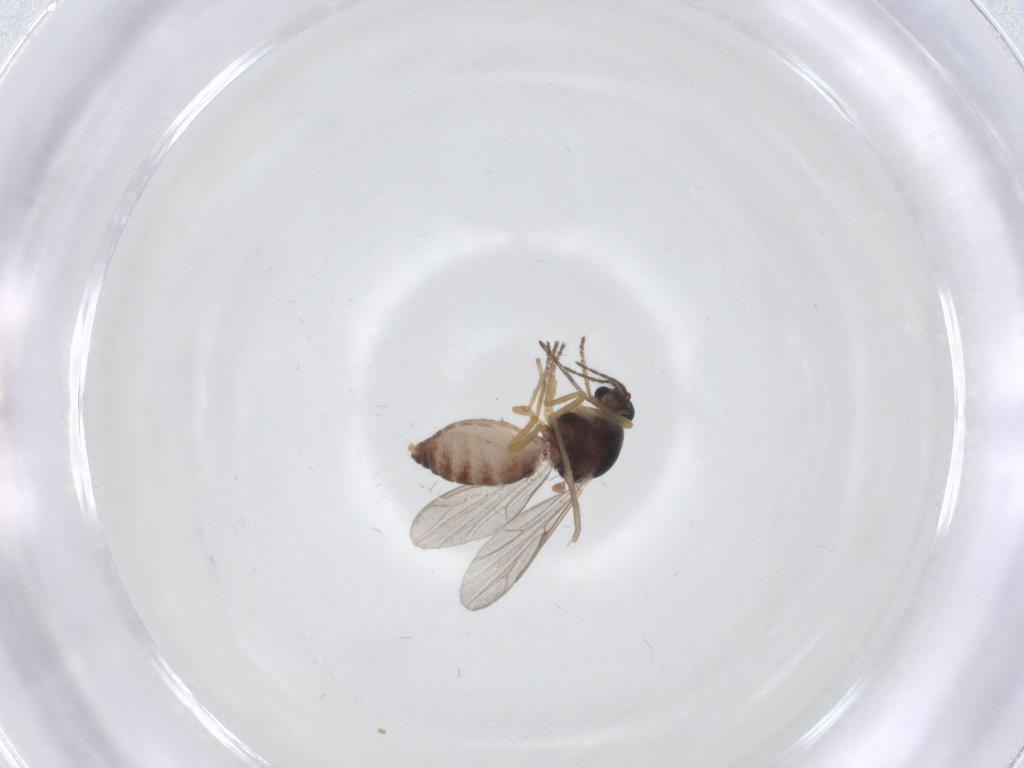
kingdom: Animalia
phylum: Arthropoda
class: Insecta
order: Diptera
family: Ceratopogonidae
